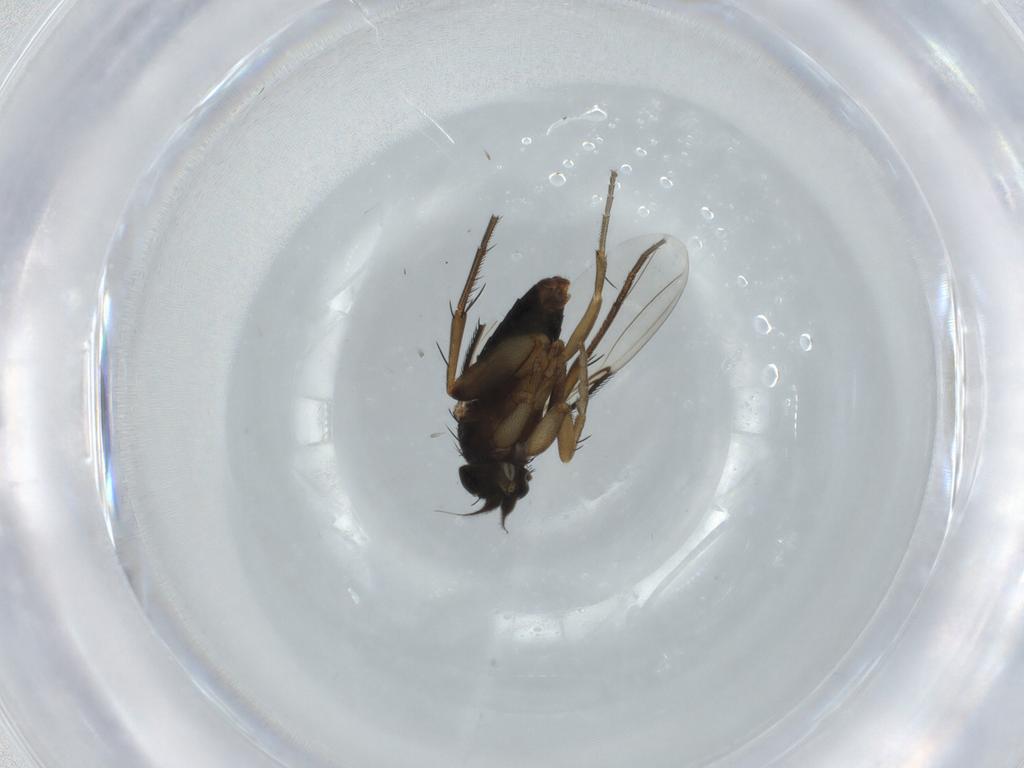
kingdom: Animalia
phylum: Arthropoda
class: Insecta
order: Diptera
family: Phoridae
